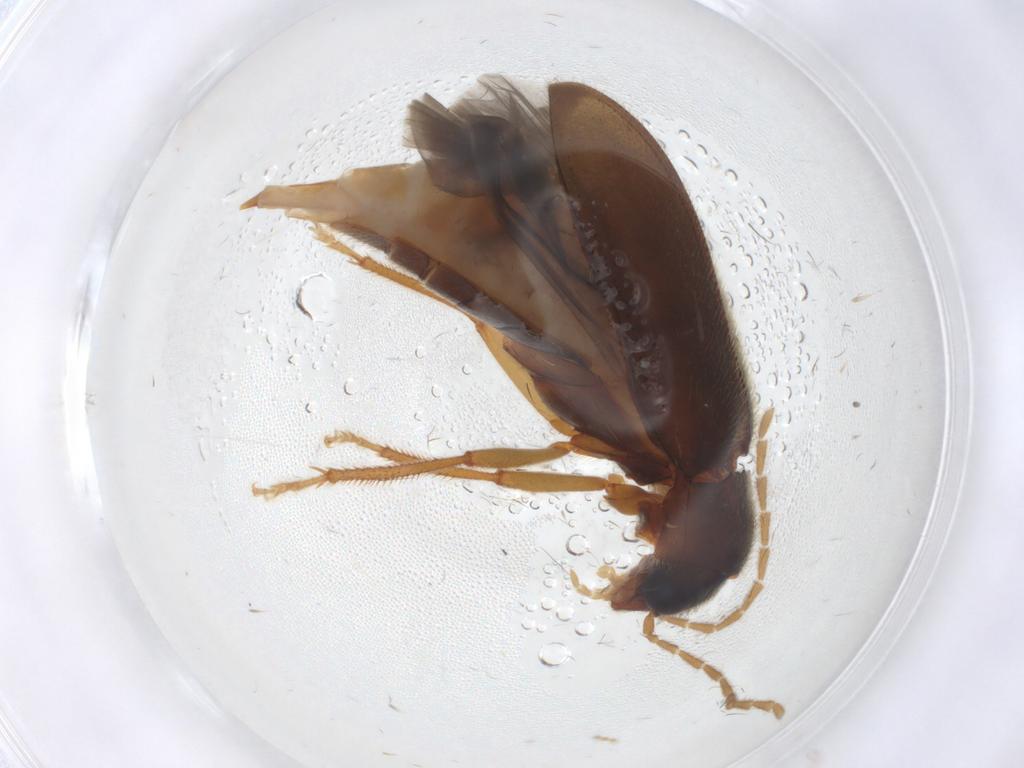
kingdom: Animalia
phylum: Arthropoda
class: Insecta
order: Coleoptera
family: Ptilodactylidae
